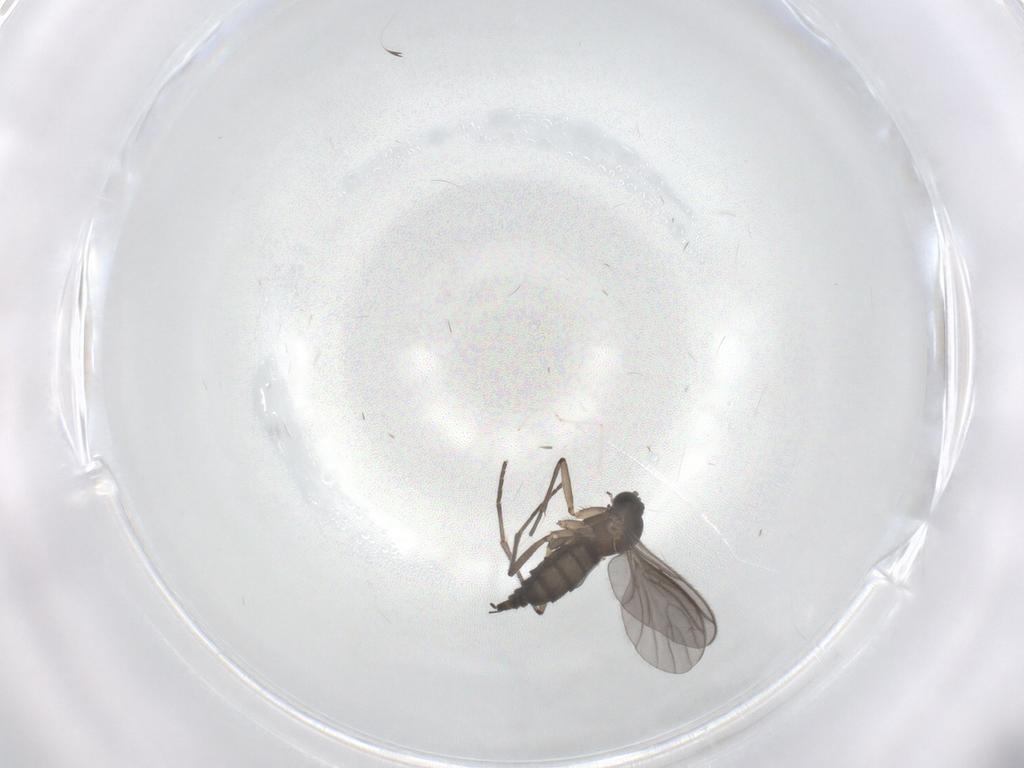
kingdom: Animalia
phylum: Arthropoda
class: Insecta
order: Diptera
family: Sciaridae
